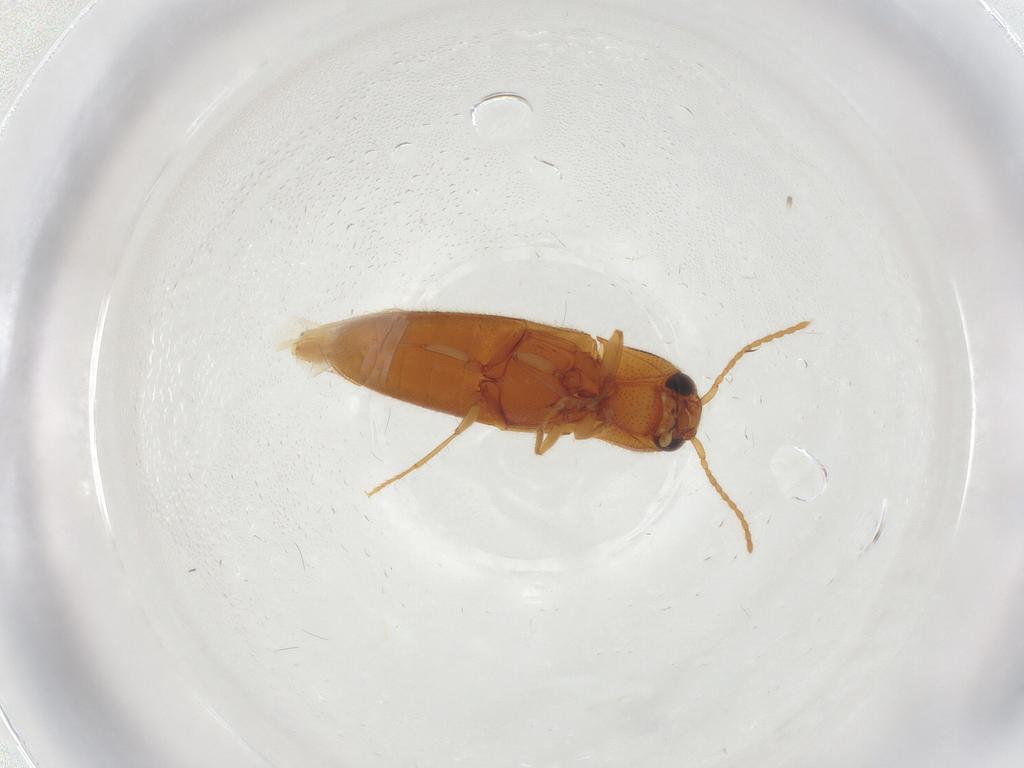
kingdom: Animalia
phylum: Arthropoda
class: Insecta
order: Coleoptera
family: Elateridae
